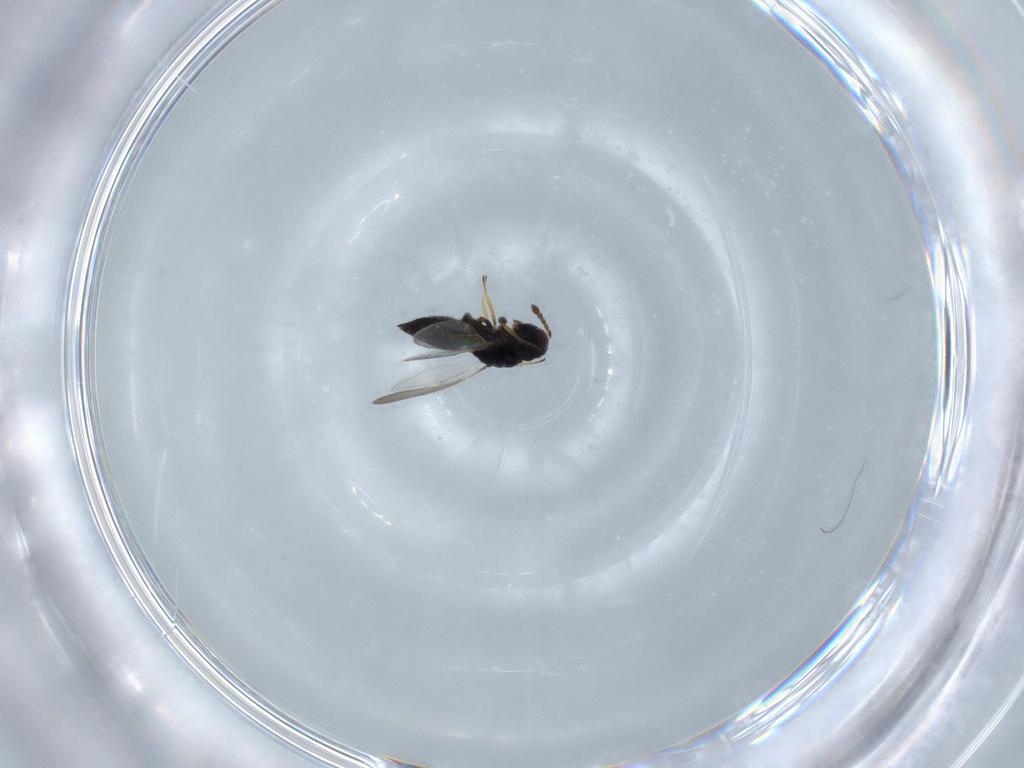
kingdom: Animalia
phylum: Arthropoda
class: Insecta
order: Hymenoptera
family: Eulophidae
